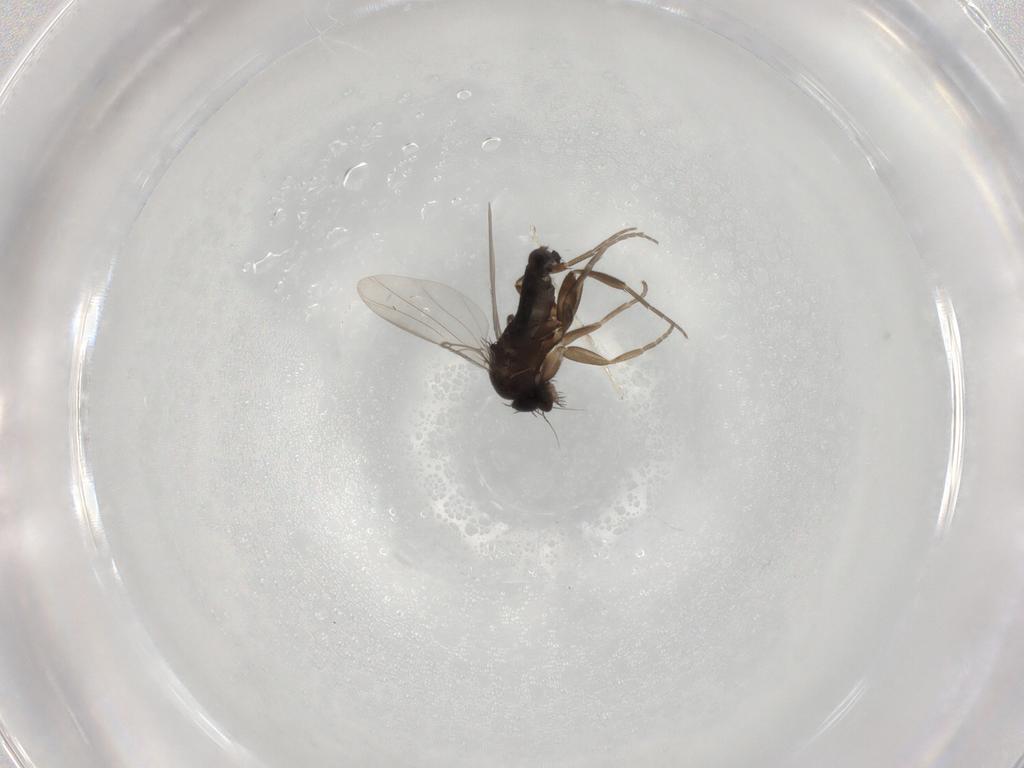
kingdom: Animalia
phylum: Arthropoda
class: Insecta
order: Diptera
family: Phoridae
